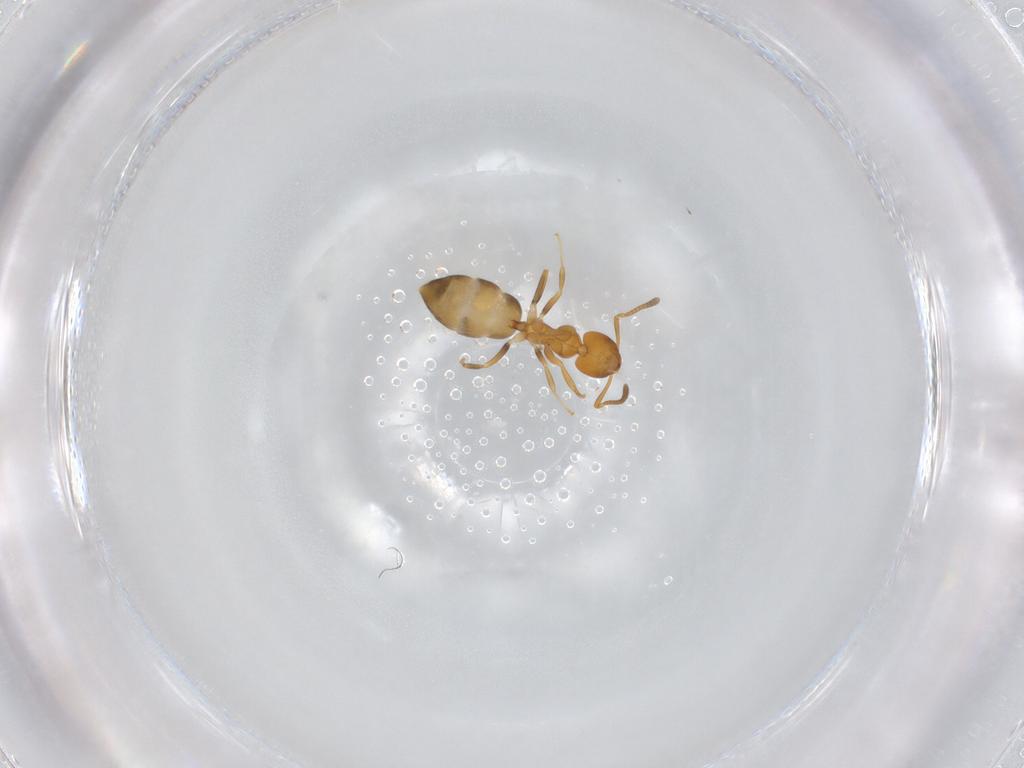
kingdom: Animalia
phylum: Arthropoda
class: Insecta
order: Hymenoptera
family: Formicidae
